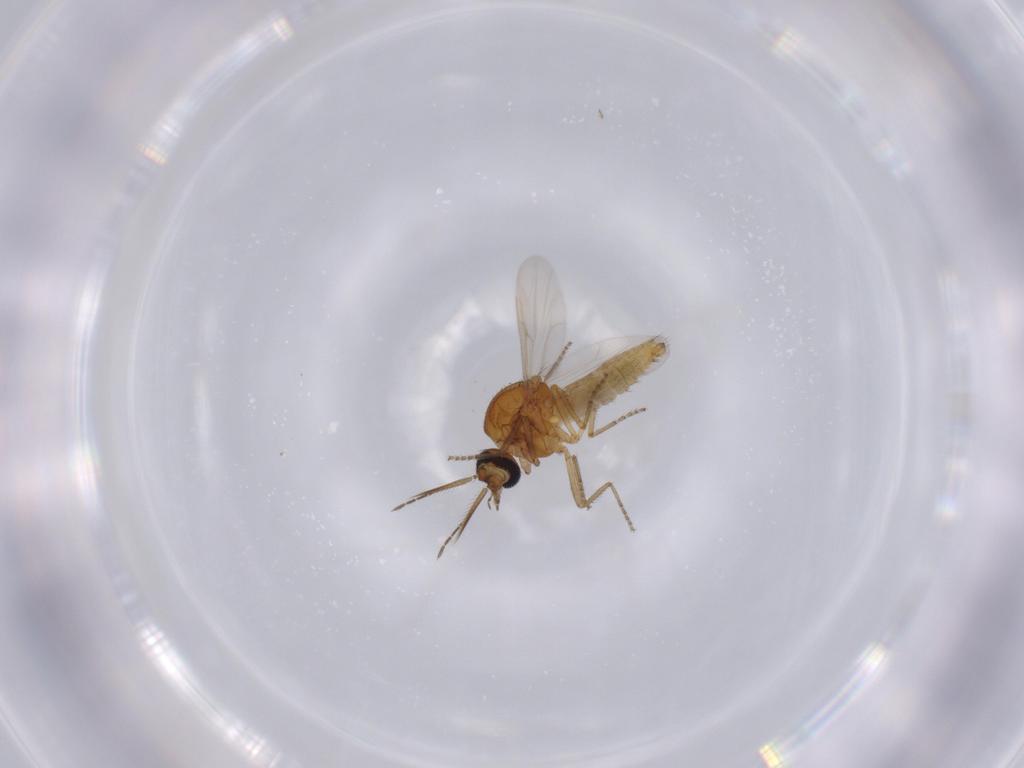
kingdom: Animalia
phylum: Arthropoda
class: Insecta
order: Diptera
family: Ceratopogonidae
